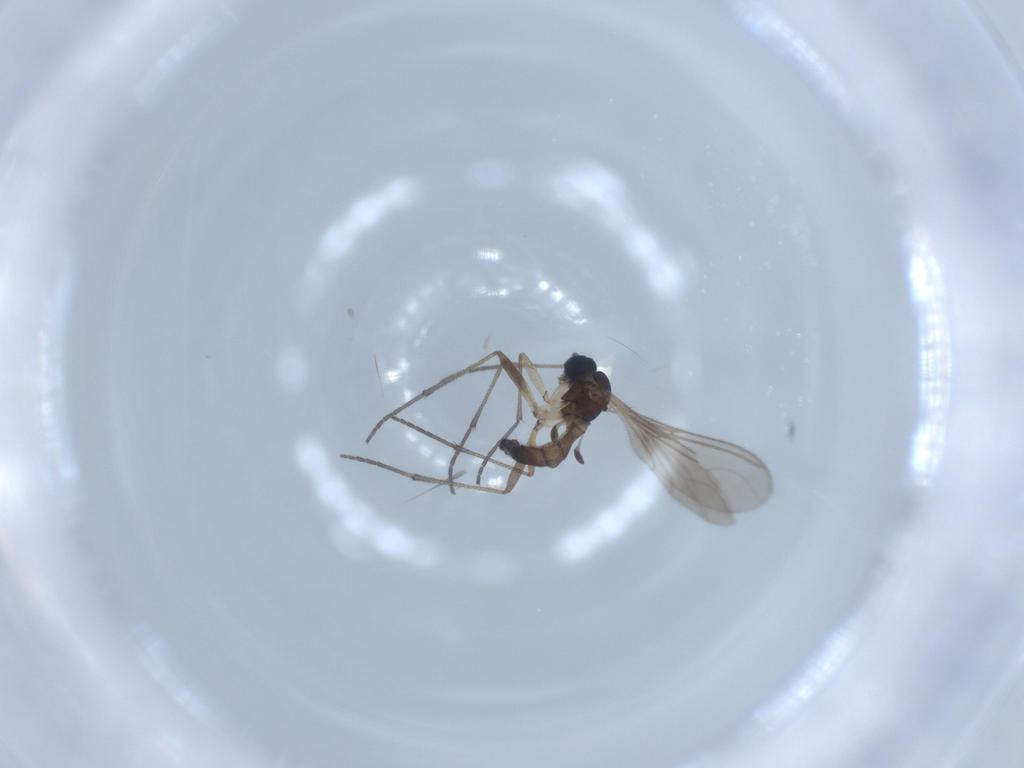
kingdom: Animalia
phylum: Arthropoda
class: Insecta
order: Diptera
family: Sciaridae
